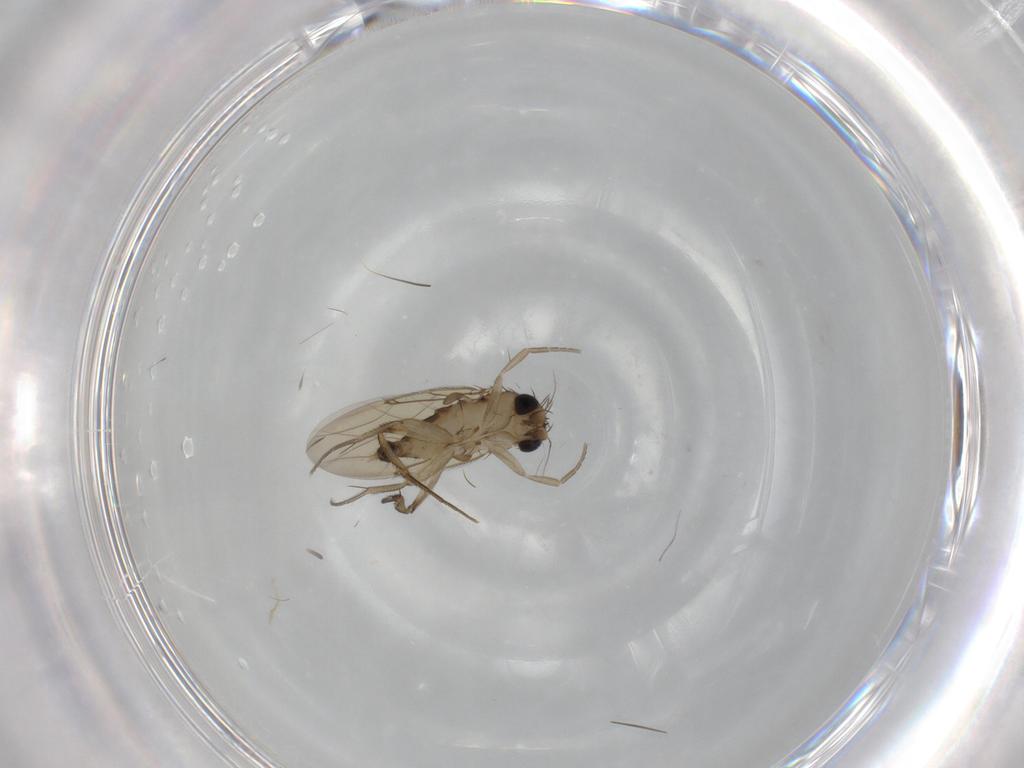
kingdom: Animalia
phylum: Arthropoda
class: Insecta
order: Diptera
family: Phoridae
